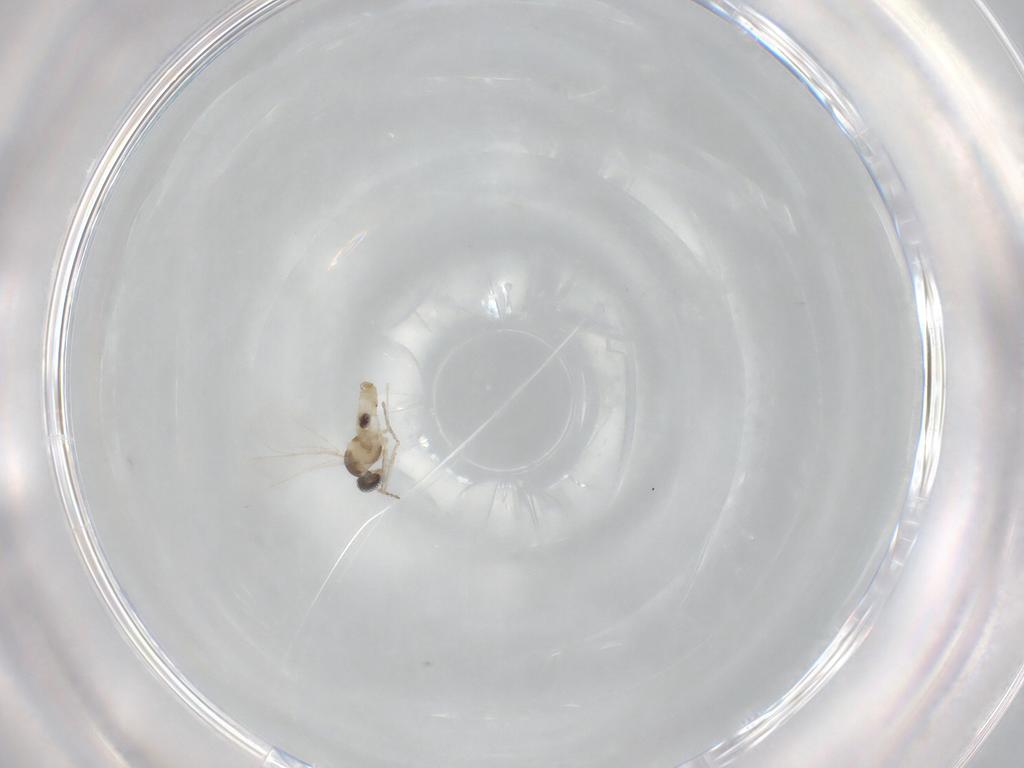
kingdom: Animalia
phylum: Arthropoda
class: Insecta
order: Diptera
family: Cecidomyiidae
